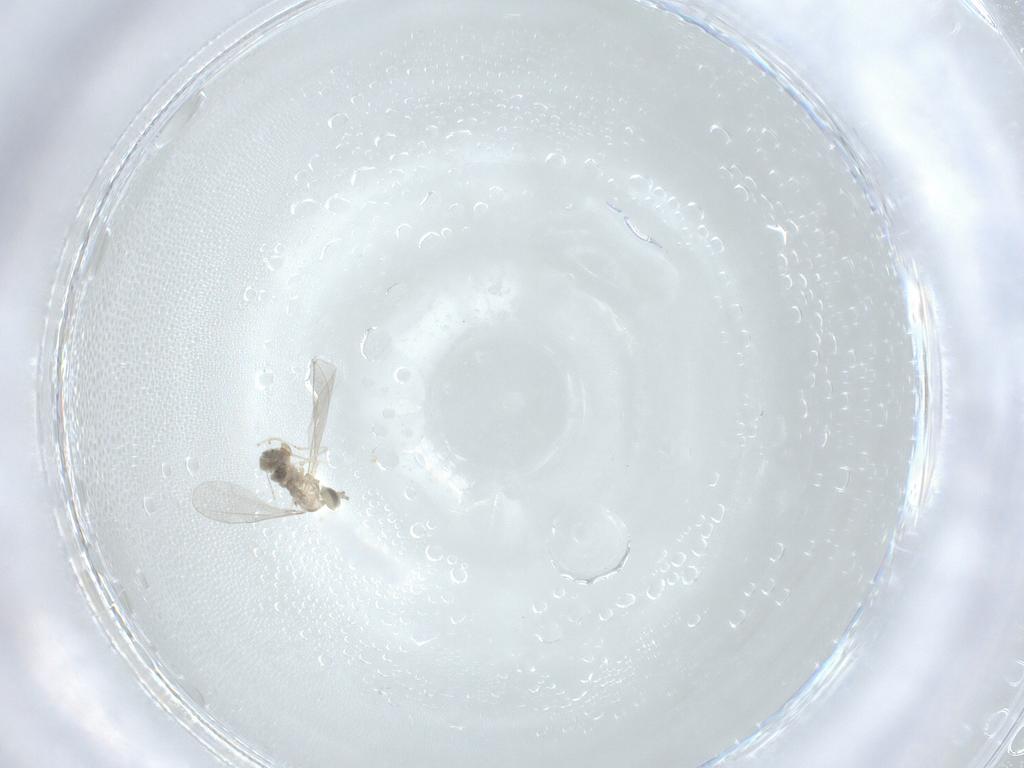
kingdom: Animalia
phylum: Arthropoda
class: Insecta
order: Diptera
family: Cecidomyiidae
